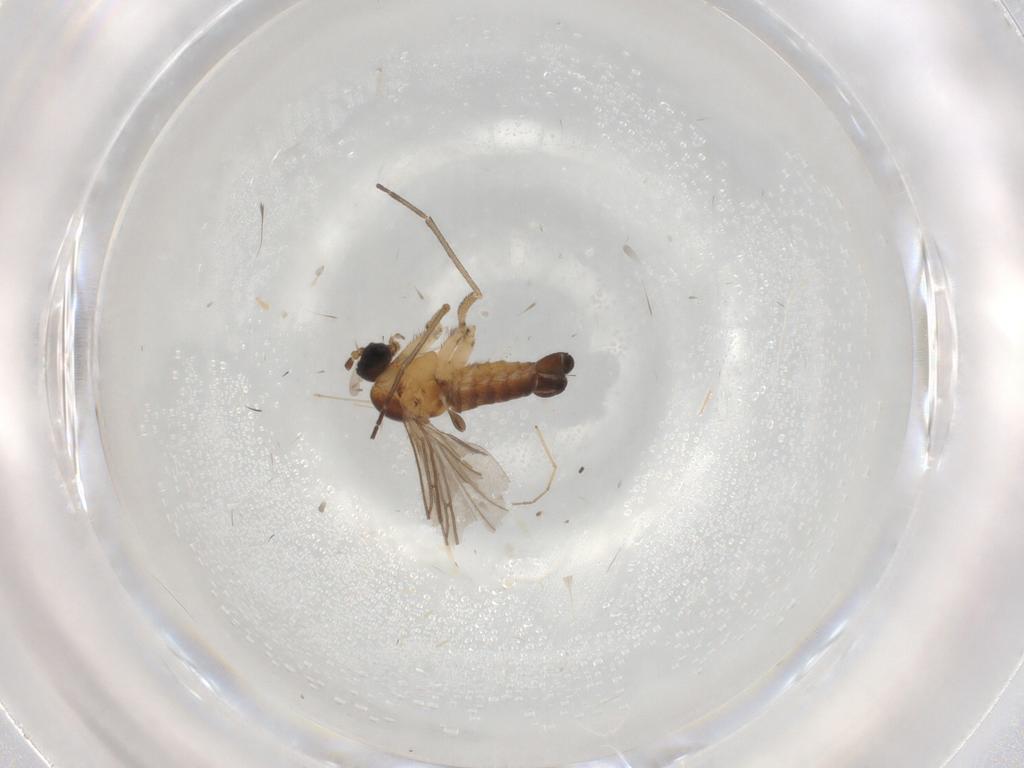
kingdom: Animalia
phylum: Arthropoda
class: Insecta
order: Diptera
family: Sciaridae
